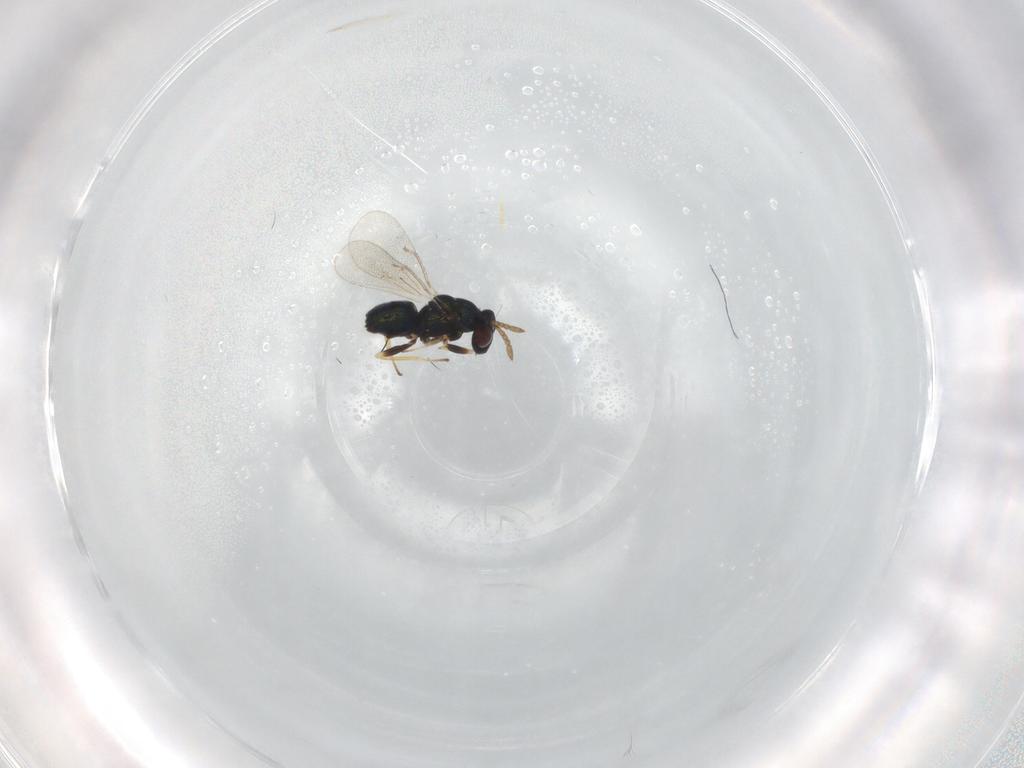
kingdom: Animalia
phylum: Arthropoda
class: Insecta
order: Hymenoptera
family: Eulophidae
